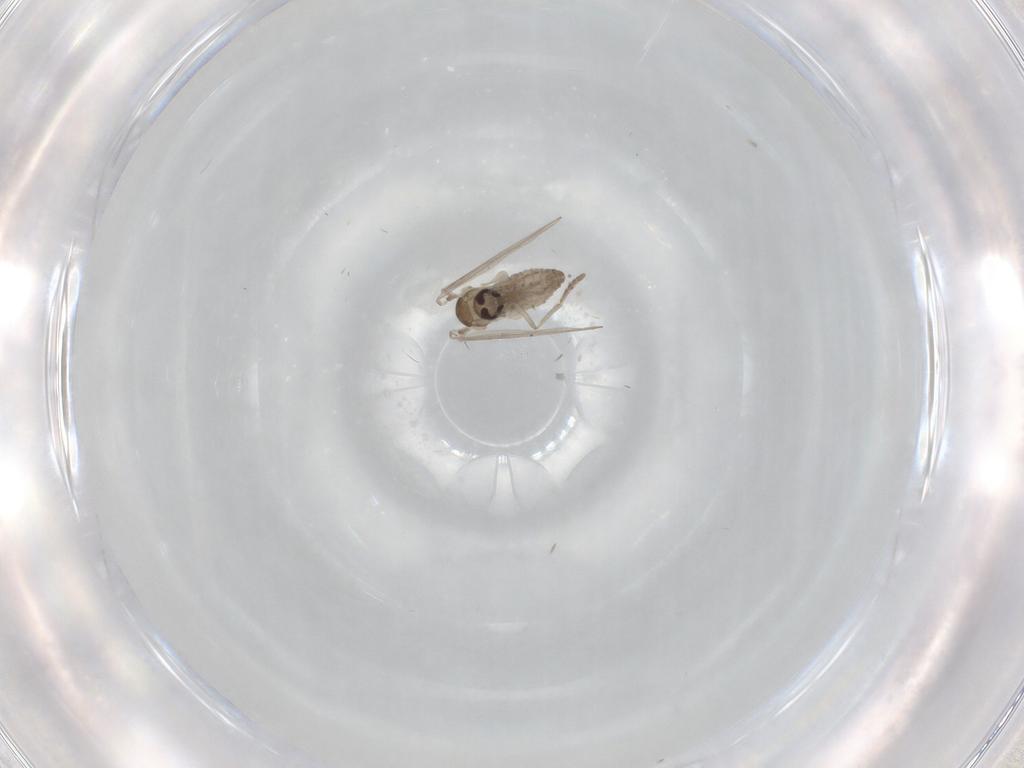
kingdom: Animalia
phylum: Arthropoda
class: Insecta
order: Diptera
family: Psychodidae
